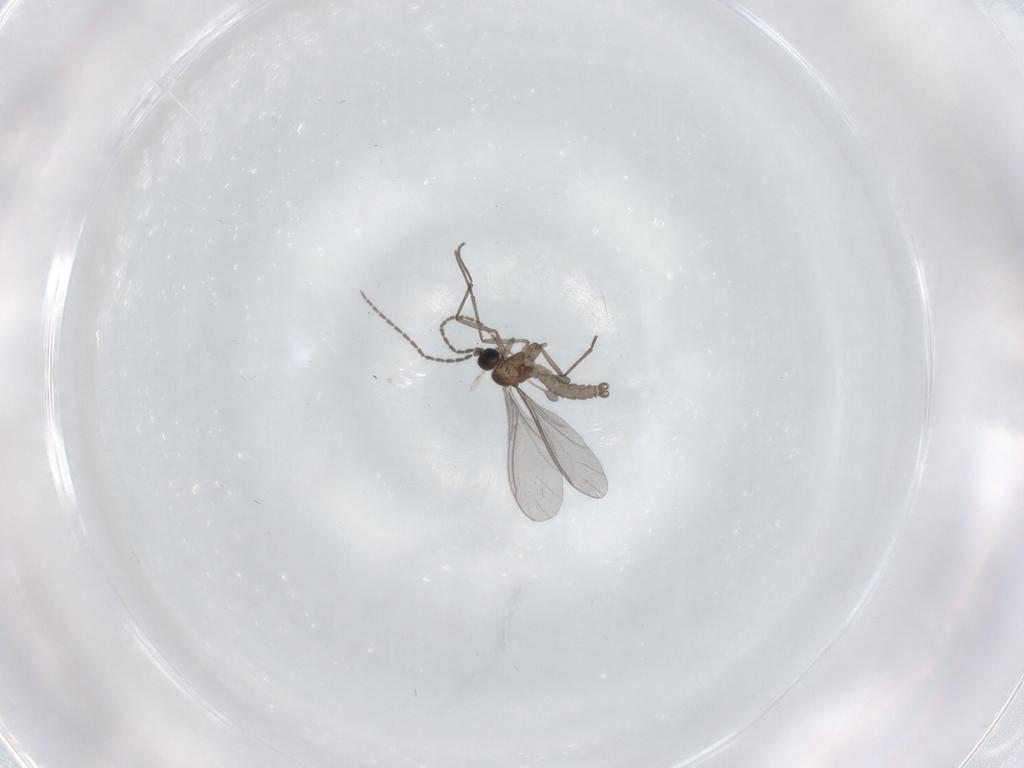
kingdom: Animalia
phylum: Arthropoda
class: Insecta
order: Diptera
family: Sciaridae
